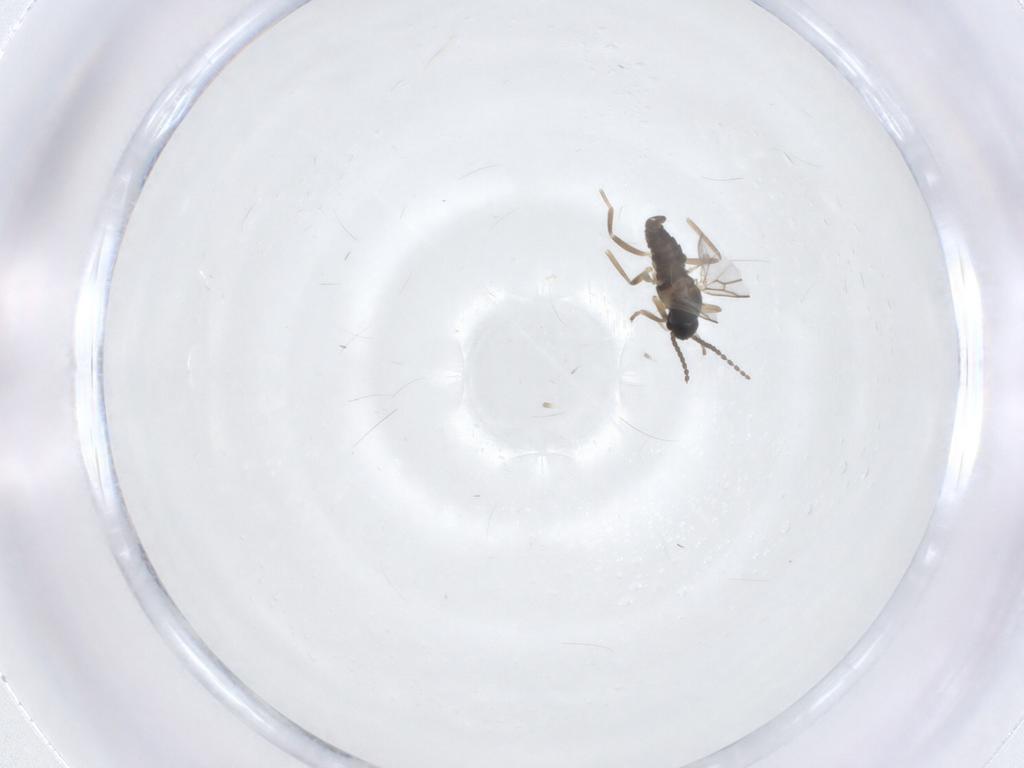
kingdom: Animalia
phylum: Arthropoda
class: Insecta
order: Diptera
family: Cecidomyiidae
